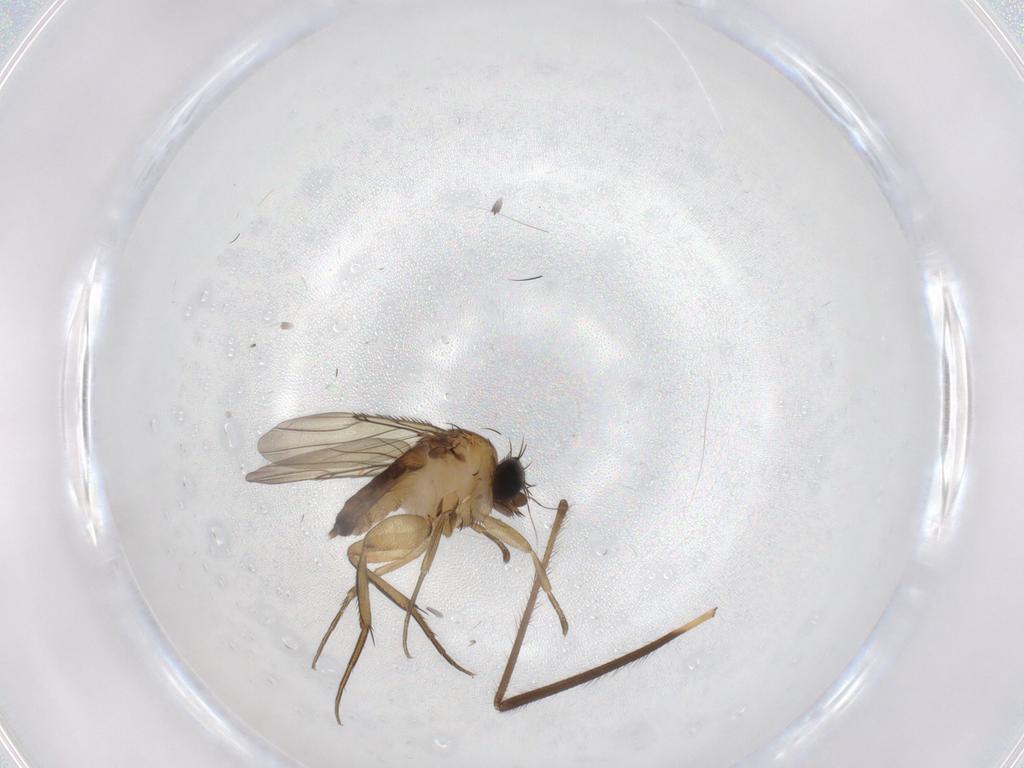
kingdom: Animalia
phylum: Arthropoda
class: Insecta
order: Diptera
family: Phoridae
